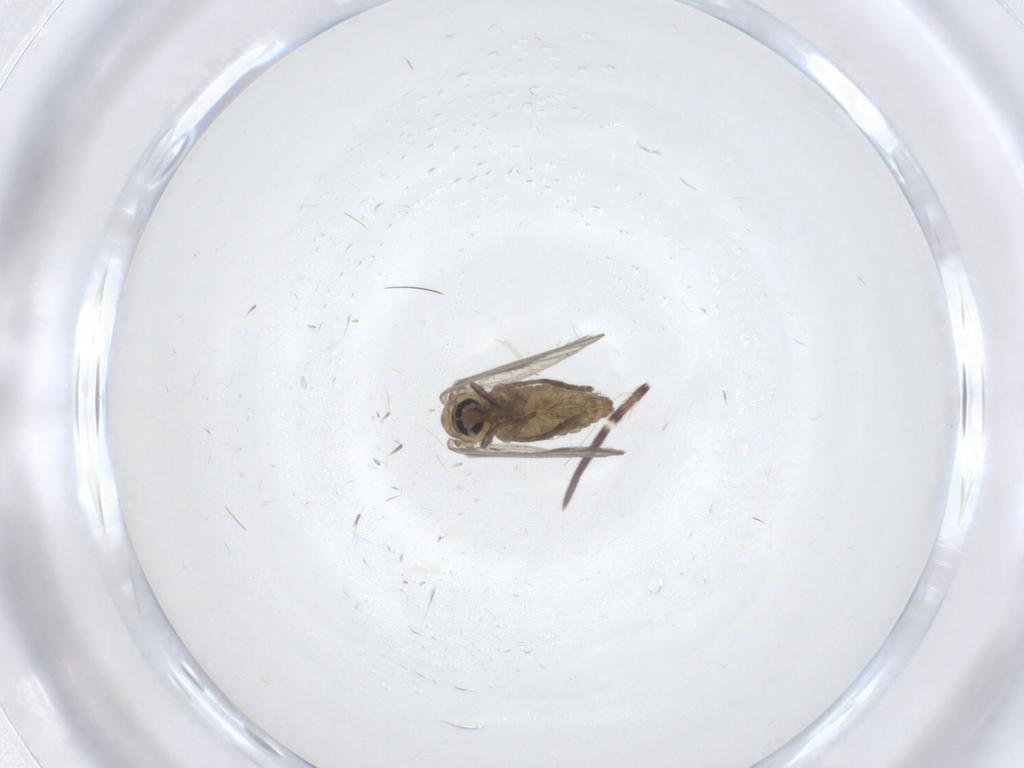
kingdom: Animalia
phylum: Arthropoda
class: Insecta
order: Diptera
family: Psychodidae
